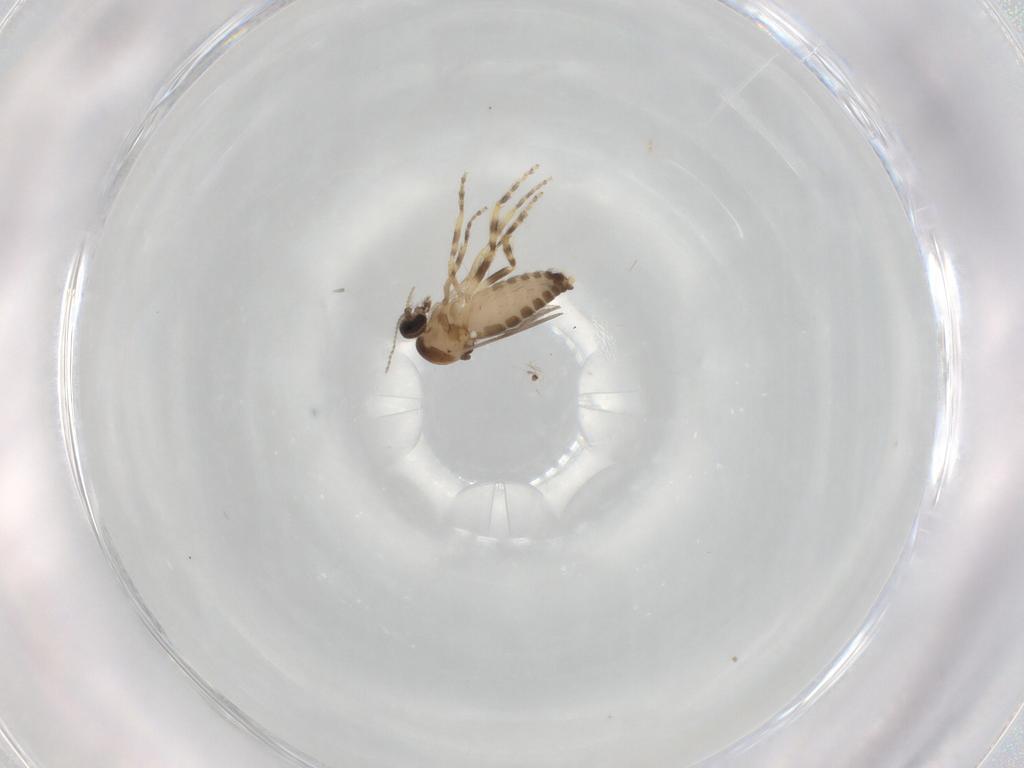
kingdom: Animalia
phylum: Arthropoda
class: Insecta
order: Diptera
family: Ceratopogonidae
